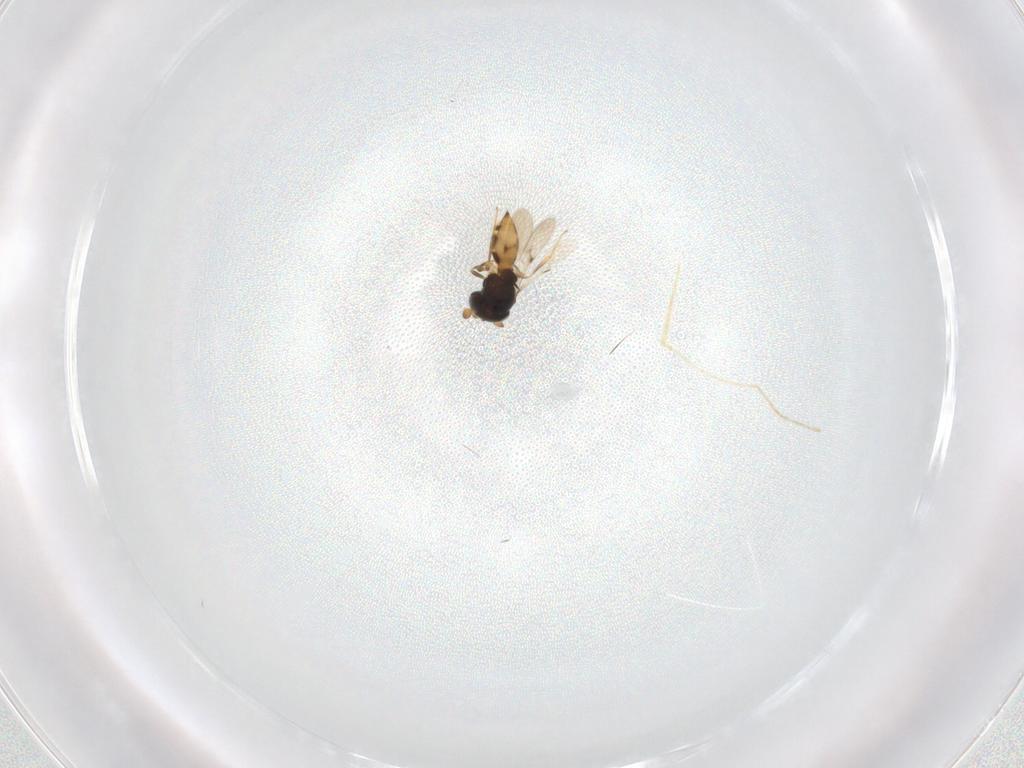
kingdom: Animalia
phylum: Arthropoda
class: Insecta
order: Hymenoptera
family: Scelionidae
